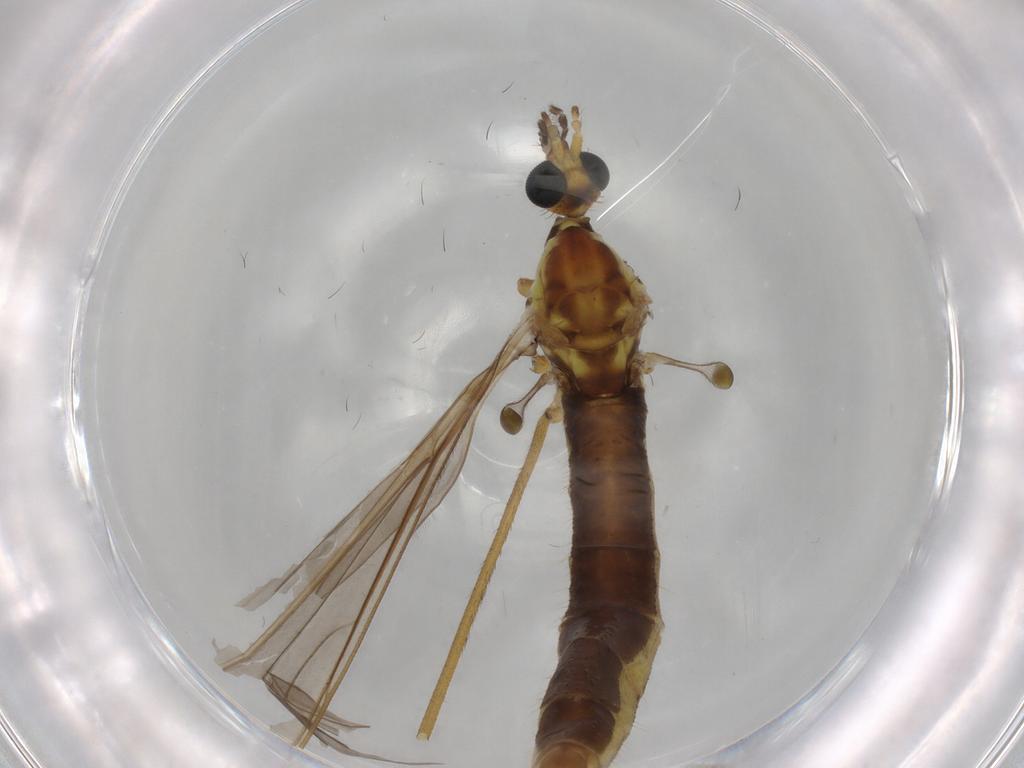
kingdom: Animalia
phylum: Arthropoda
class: Insecta
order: Diptera
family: Limoniidae
